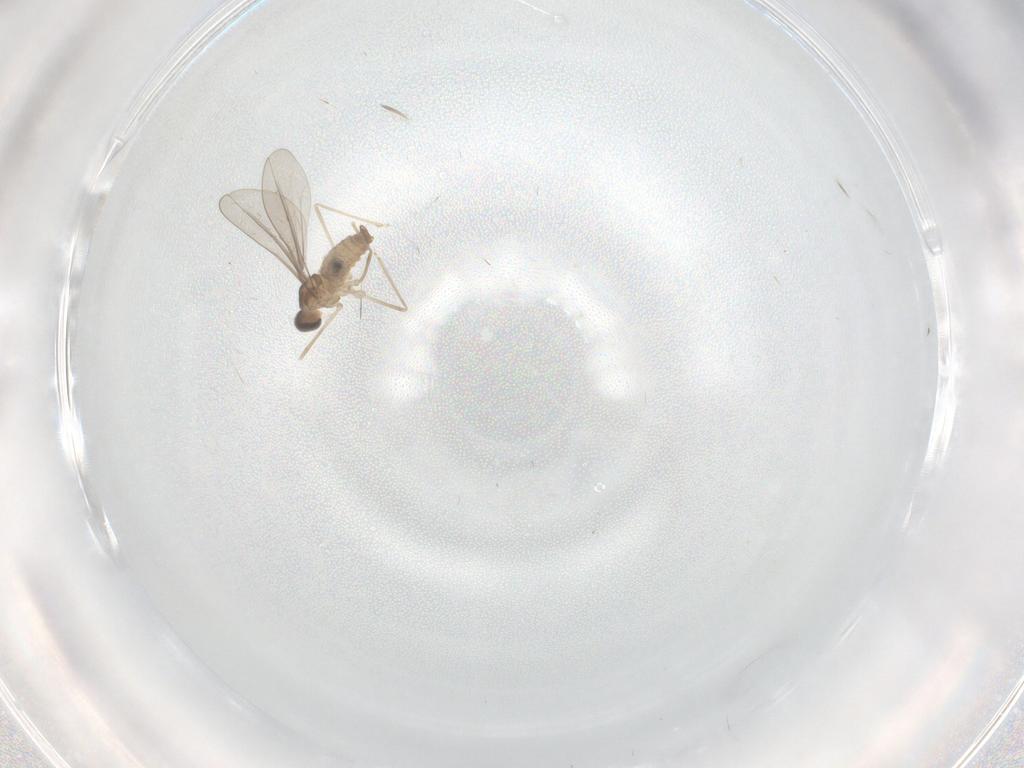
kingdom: Animalia
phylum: Arthropoda
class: Insecta
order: Diptera
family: Cecidomyiidae
